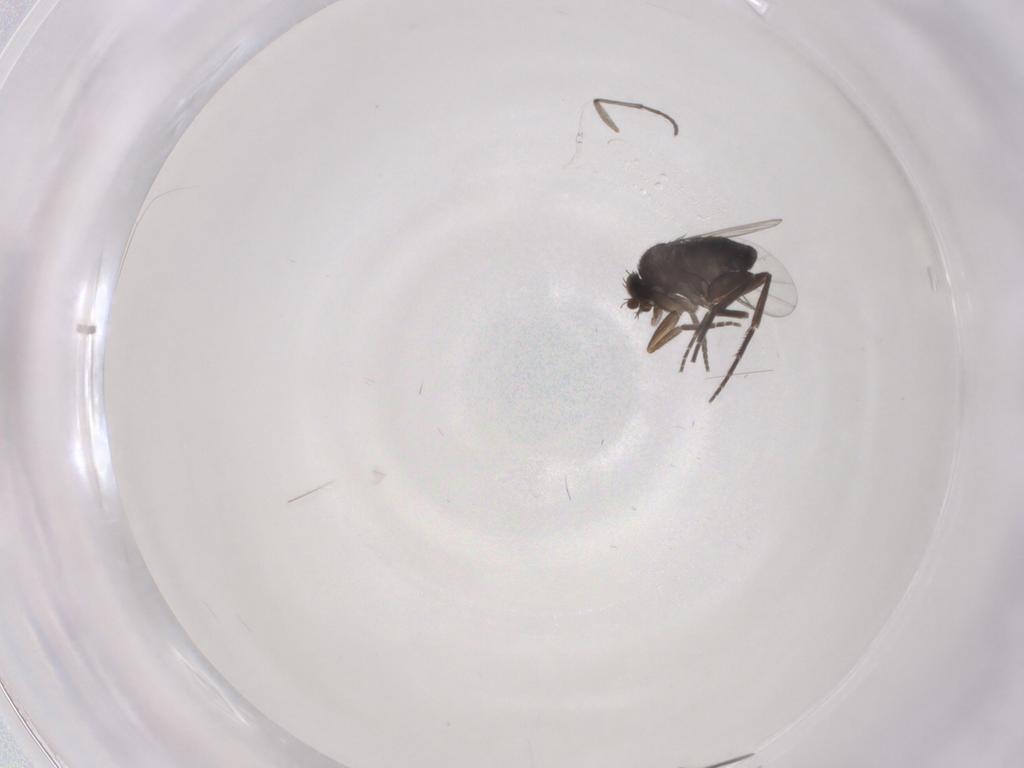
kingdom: Animalia
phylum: Arthropoda
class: Insecta
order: Diptera
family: Sciaridae
